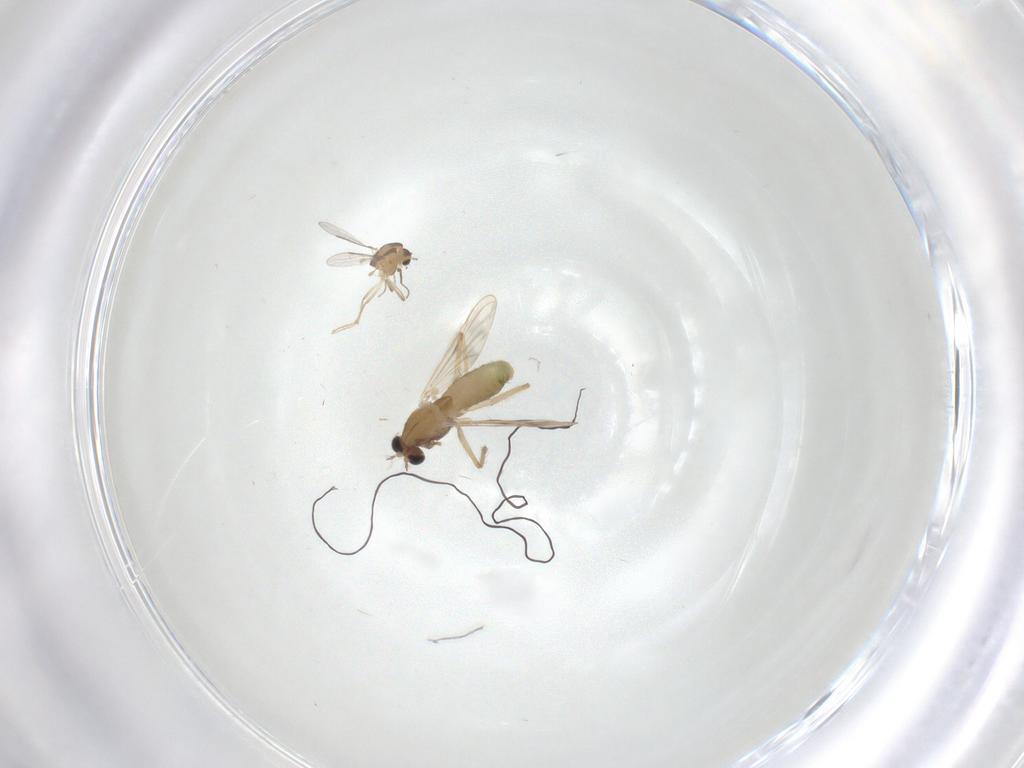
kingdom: Animalia
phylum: Arthropoda
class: Insecta
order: Diptera
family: Chironomidae
